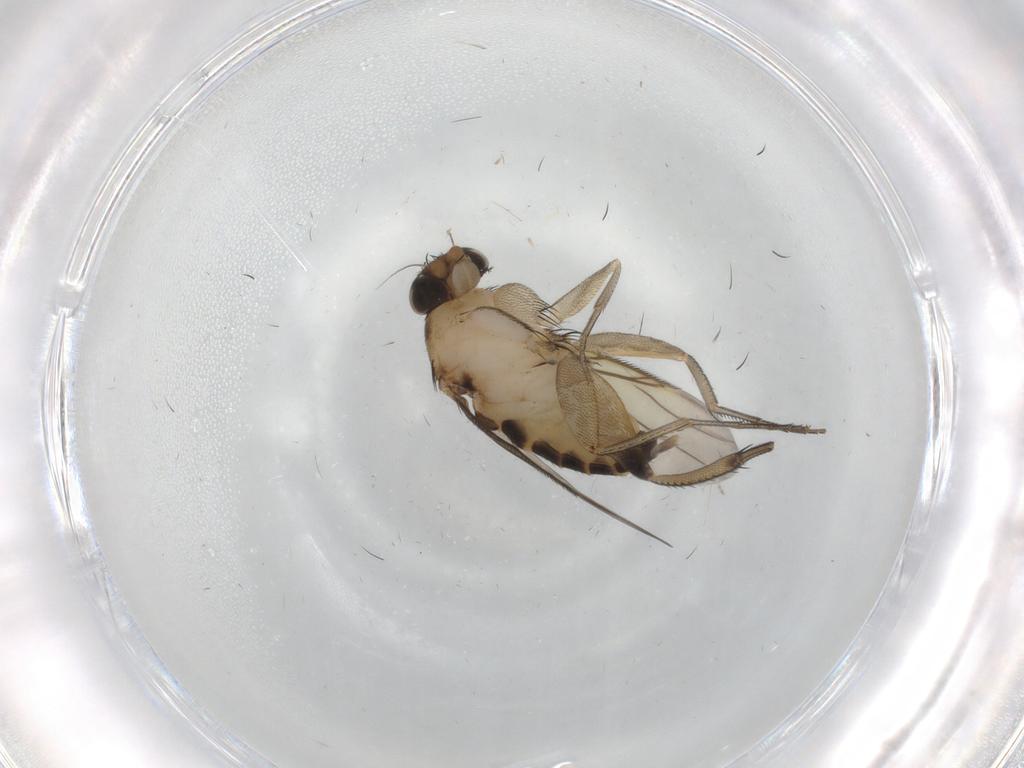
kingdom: Animalia
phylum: Arthropoda
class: Insecta
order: Diptera
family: Phoridae
